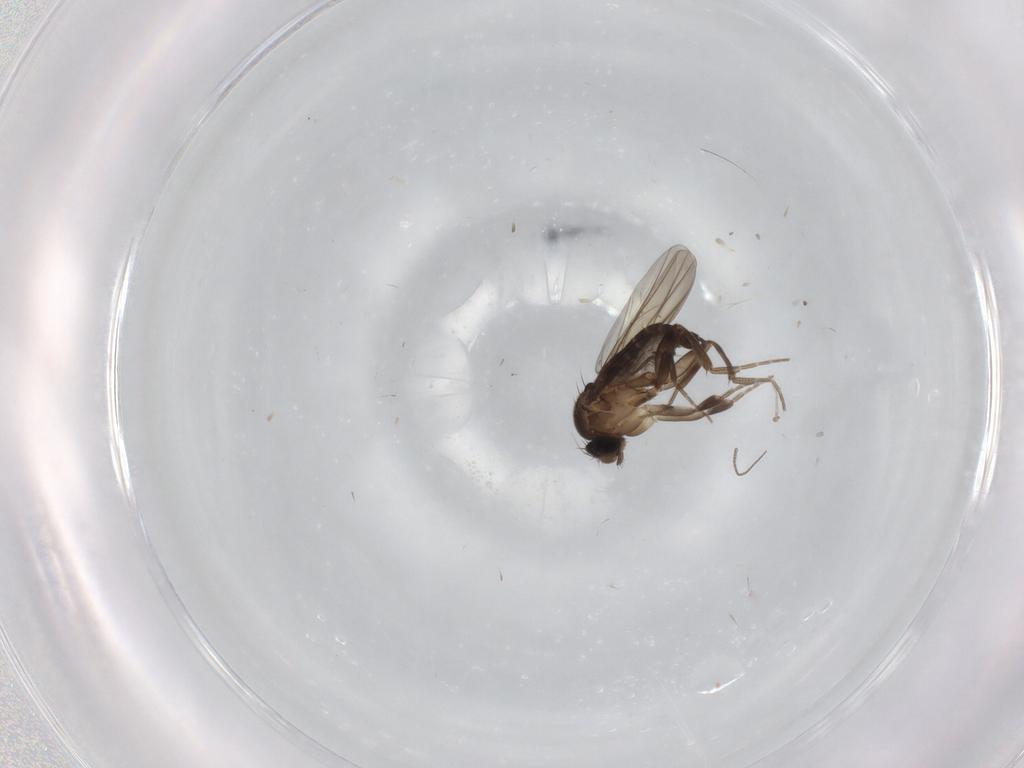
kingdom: Animalia
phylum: Arthropoda
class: Insecta
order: Diptera
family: Phoridae
